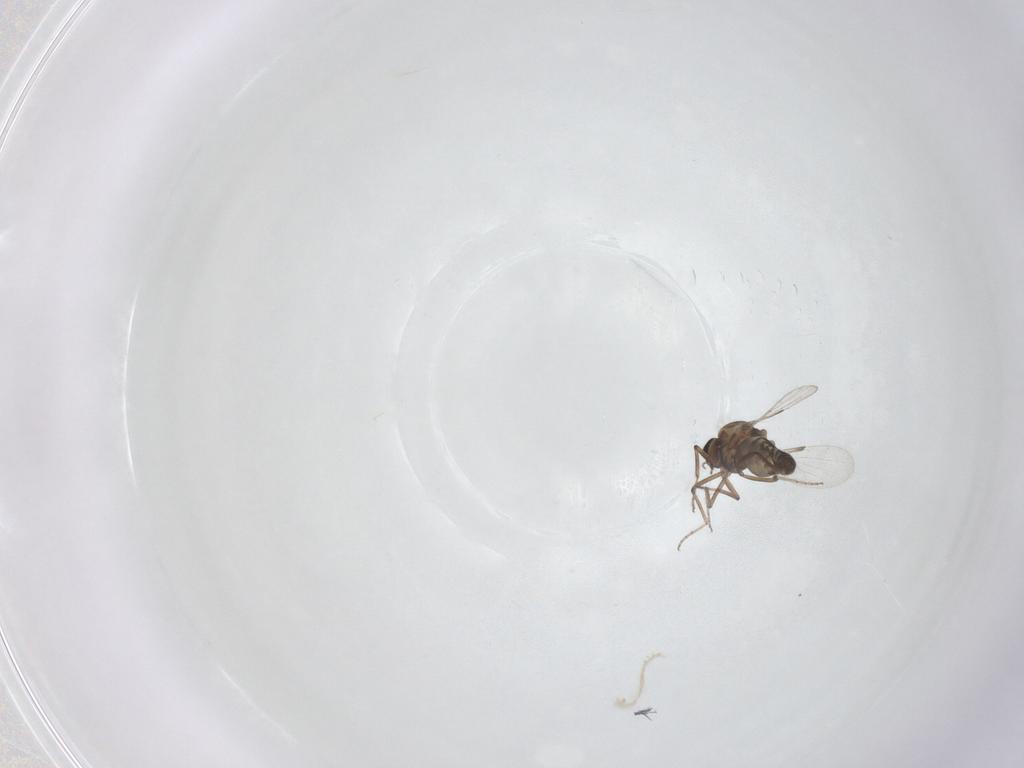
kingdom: Animalia
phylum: Arthropoda
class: Insecta
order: Diptera
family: Ceratopogonidae
